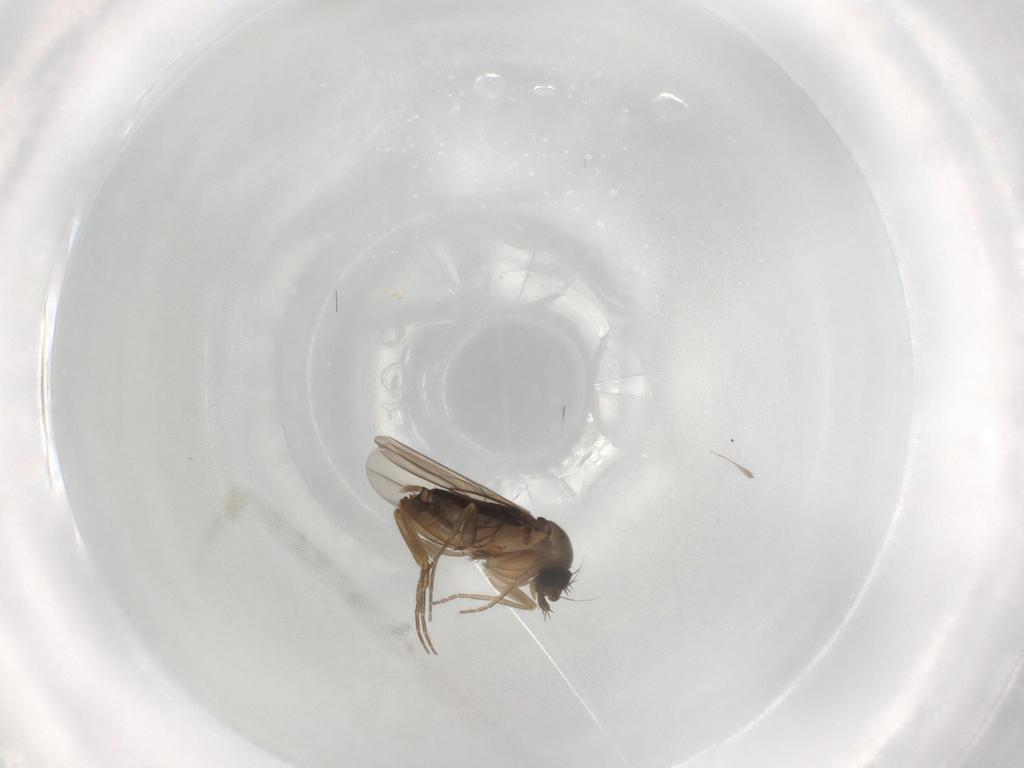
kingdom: Animalia
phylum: Arthropoda
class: Insecta
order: Diptera
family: Phoridae
